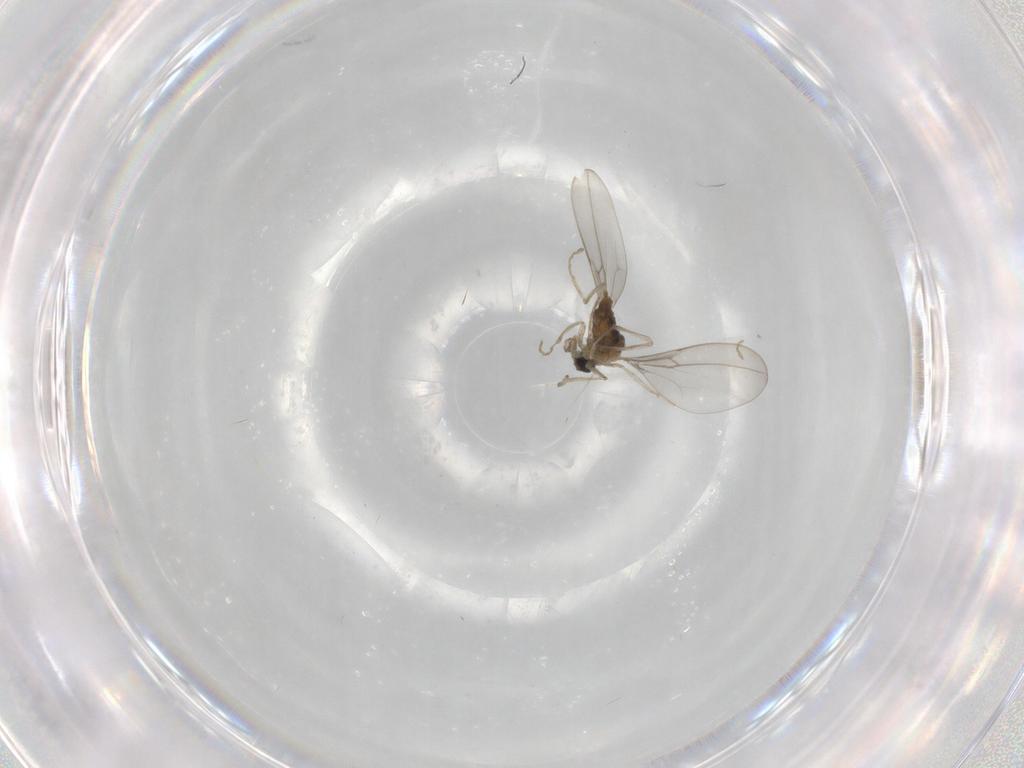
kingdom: Animalia
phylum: Arthropoda
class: Insecta
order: Diptera
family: Cecidomyiidae
